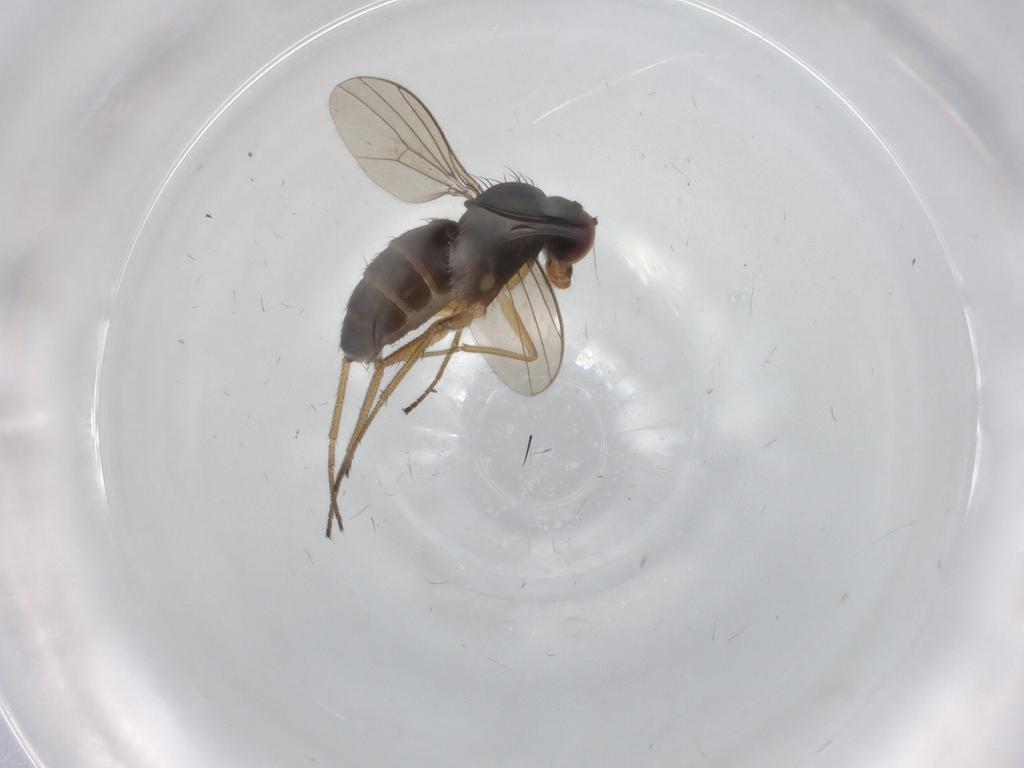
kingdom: Animalia
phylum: Arthropoda
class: Insecta
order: Diptera
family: Dolichopodidae
